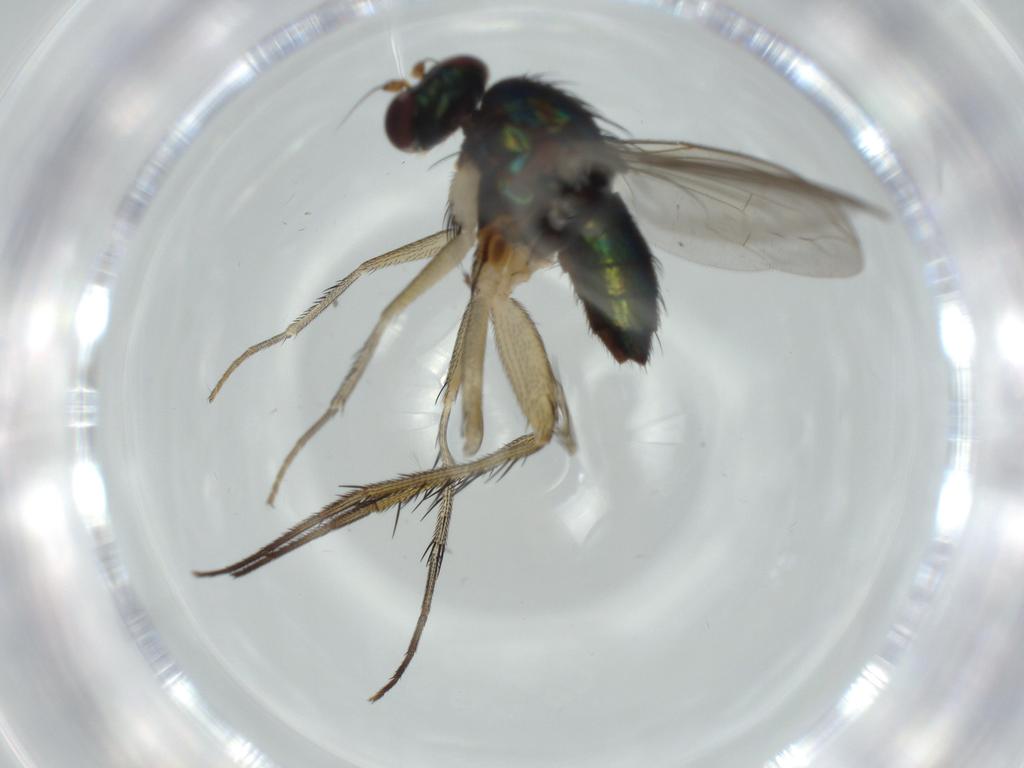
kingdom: Animalia
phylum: Arthropoda
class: Insecta
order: Diptera
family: Dolichopodidae
